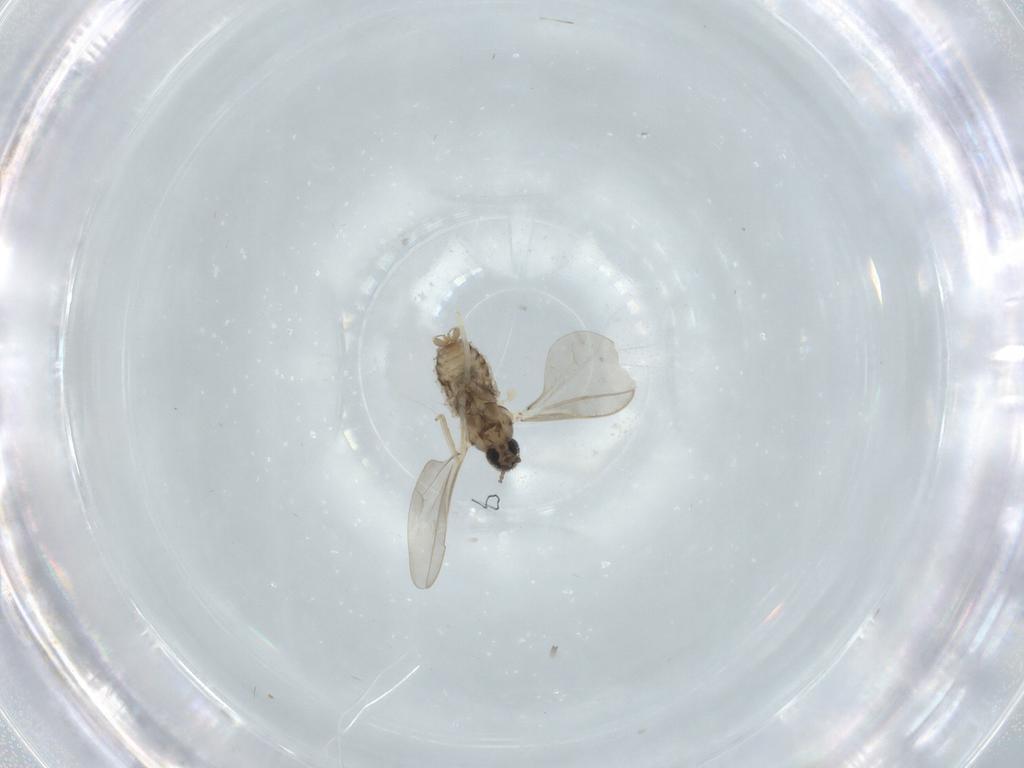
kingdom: Animalia
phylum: Arthropoda
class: Insecta
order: Diptera
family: Cecidomyiidae
